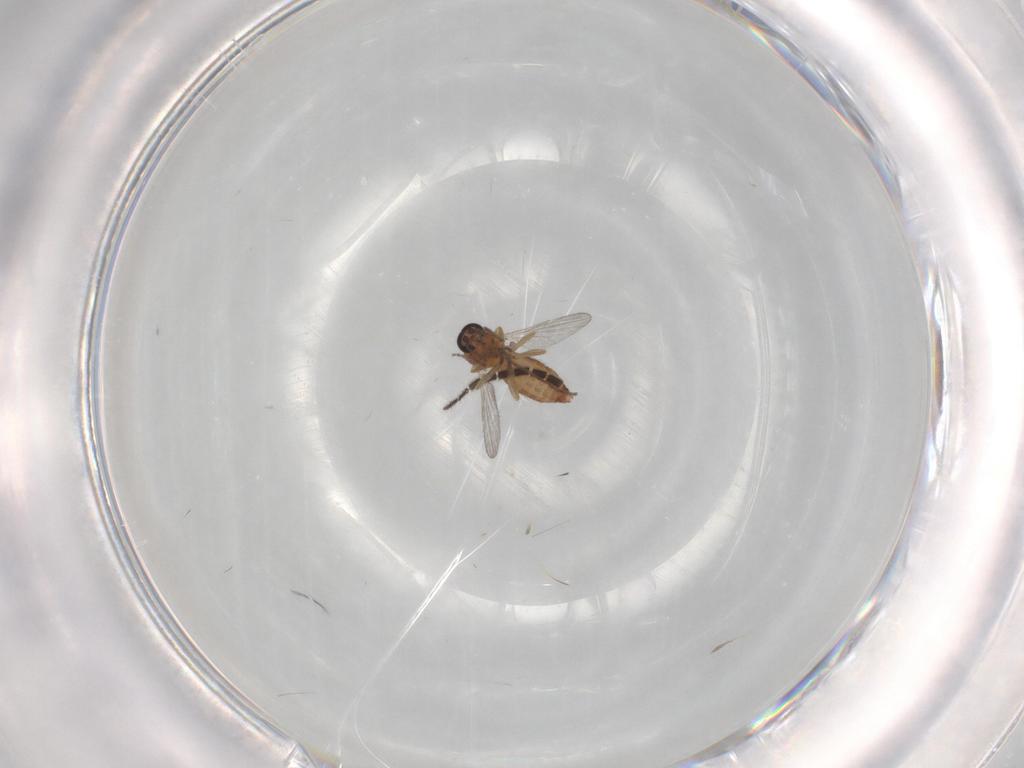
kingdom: Animalia
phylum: Arthropoda
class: Insecta
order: Diptera
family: Sciaridae
